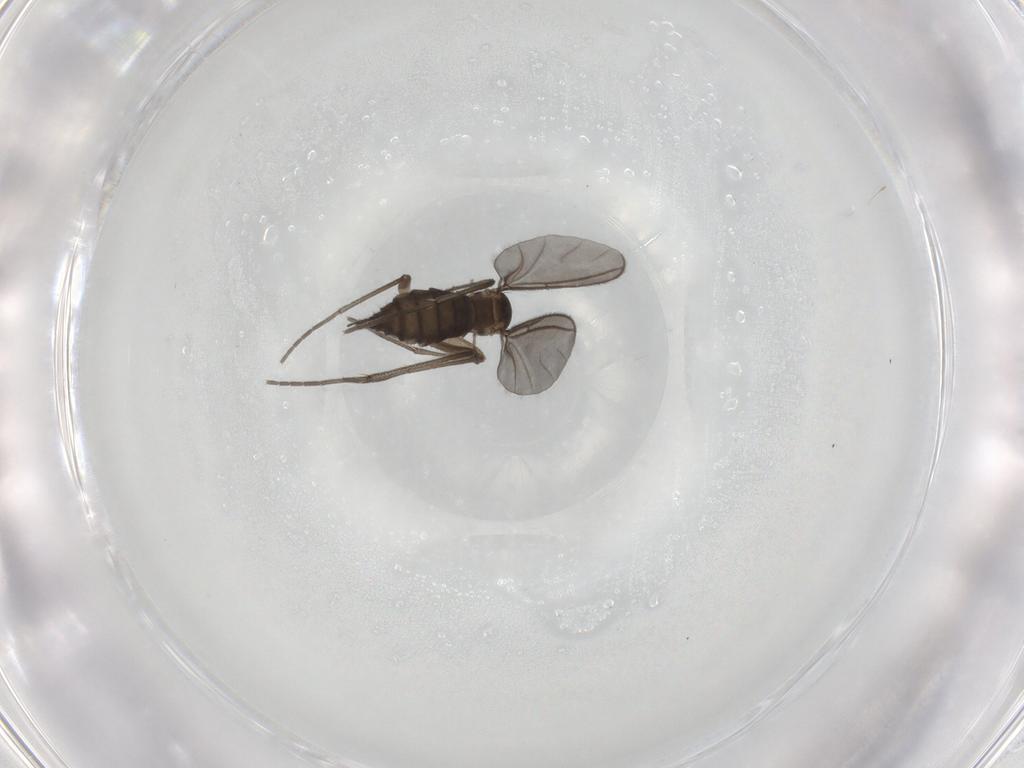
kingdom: Animalia
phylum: Arthropoda
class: Insecta
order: Diptera
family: Sciaridae
